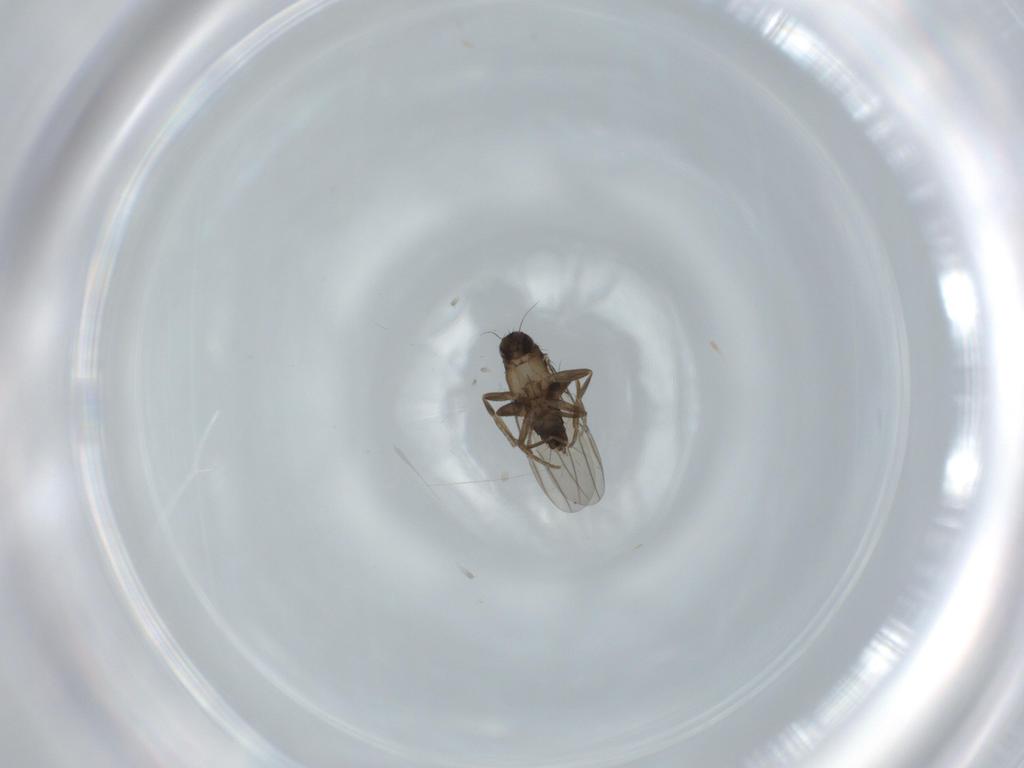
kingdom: Animalia
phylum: Arthropoda
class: Insecta
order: Diptera
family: Phoridae
